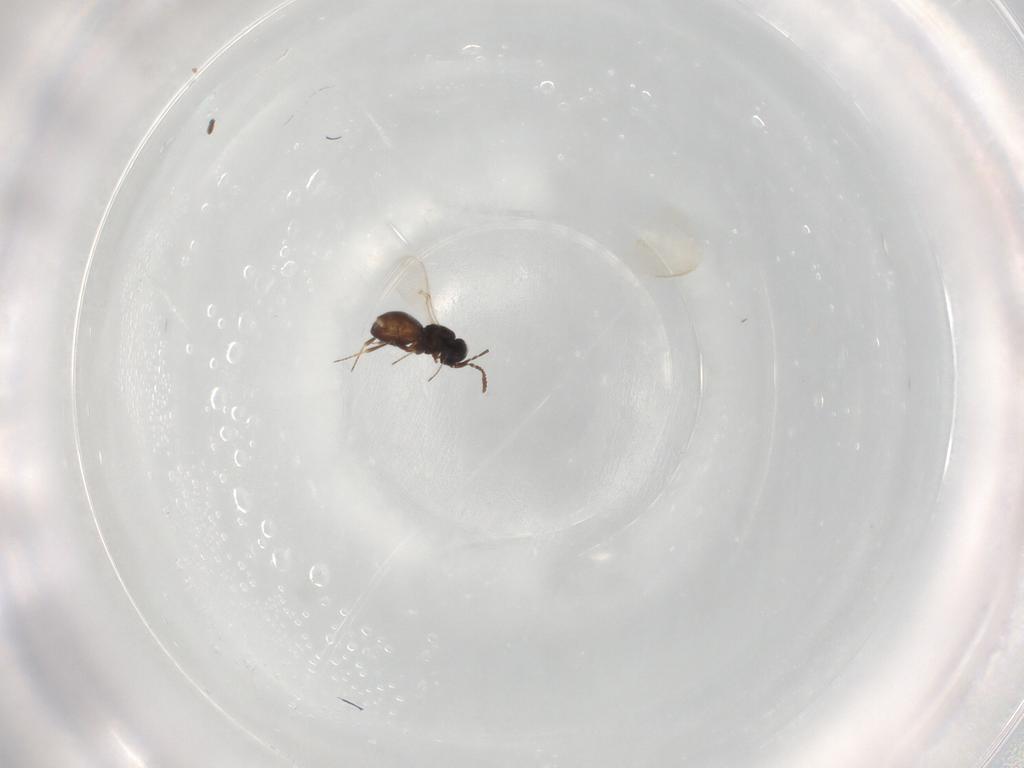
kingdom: Animalia
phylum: Arthropoda
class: Insecta
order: Hymenoptera
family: Scelionidae
